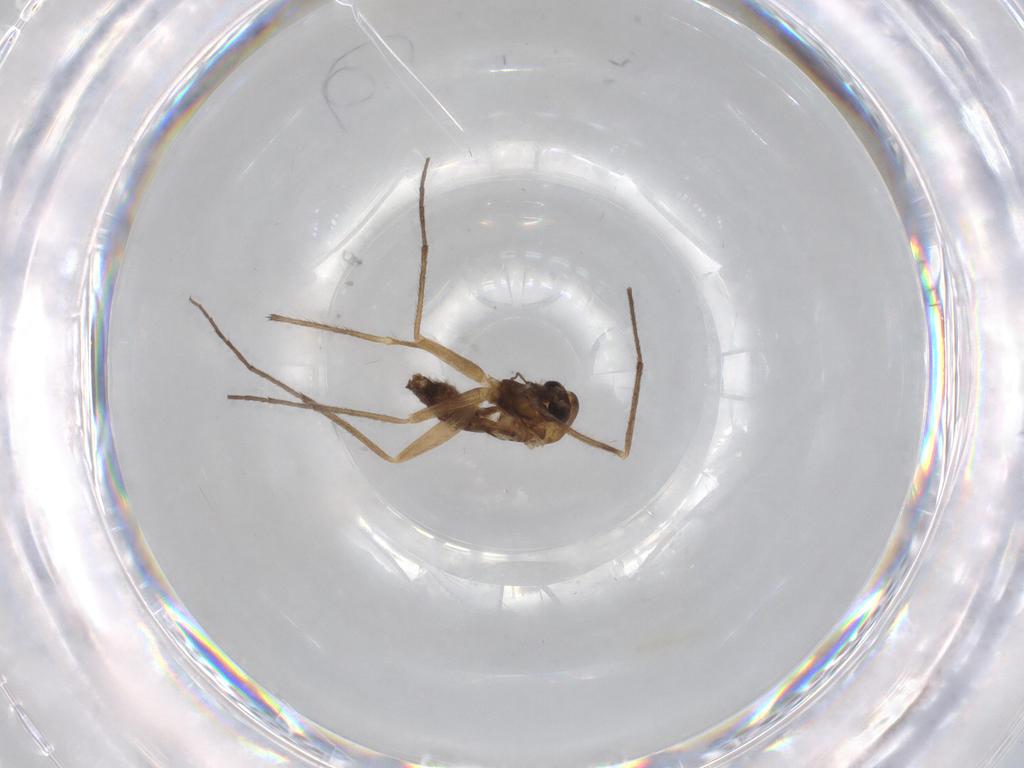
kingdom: Animalia
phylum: Arthropoda
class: Insecta
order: Diptera
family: Chironomidae
